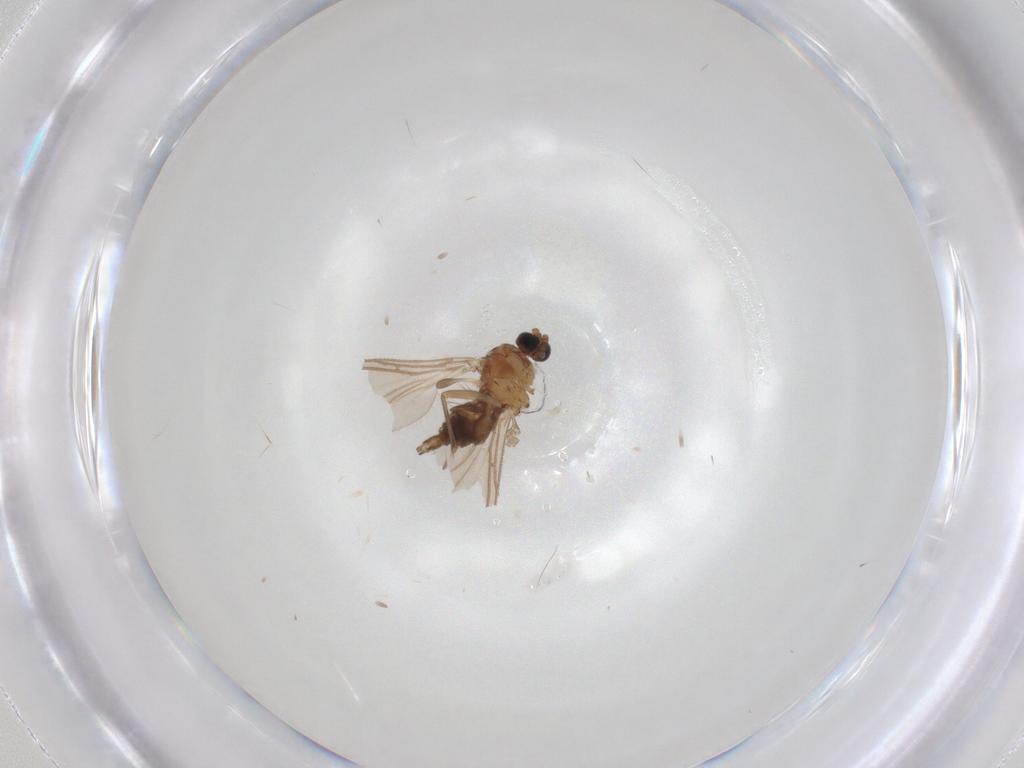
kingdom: Animalia
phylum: Arthropoda
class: Insecta
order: Diptera
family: Sciaridae
